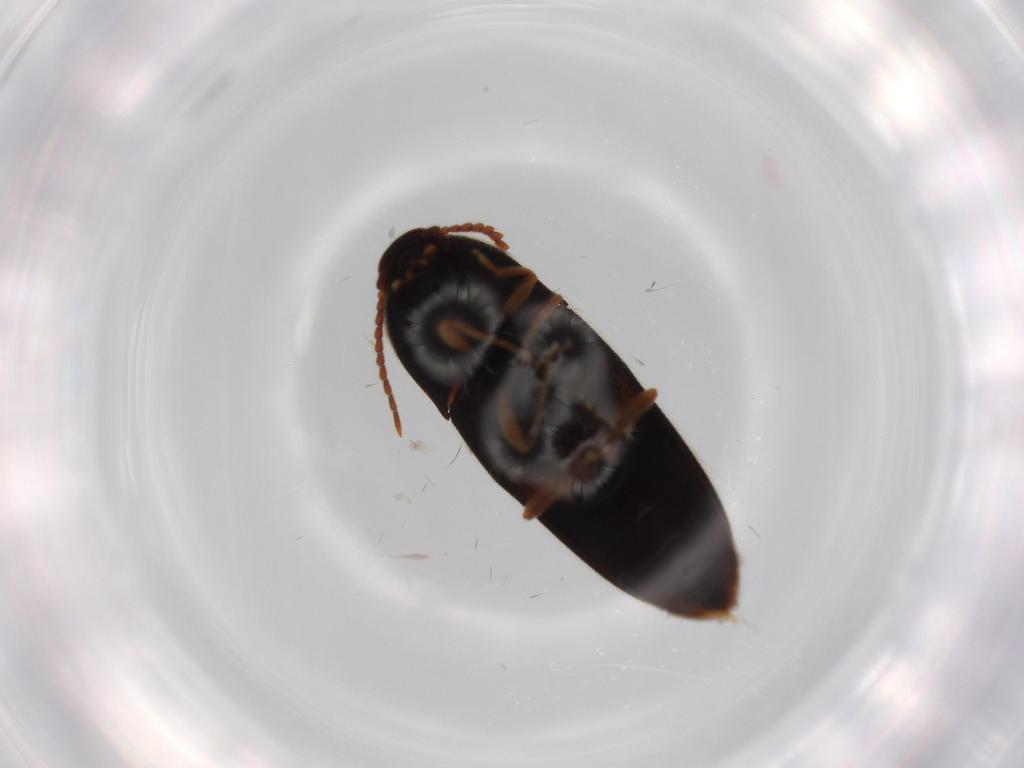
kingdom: Animalia
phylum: Arthropoda
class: Insecta
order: Coleoptera
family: Elateridae
